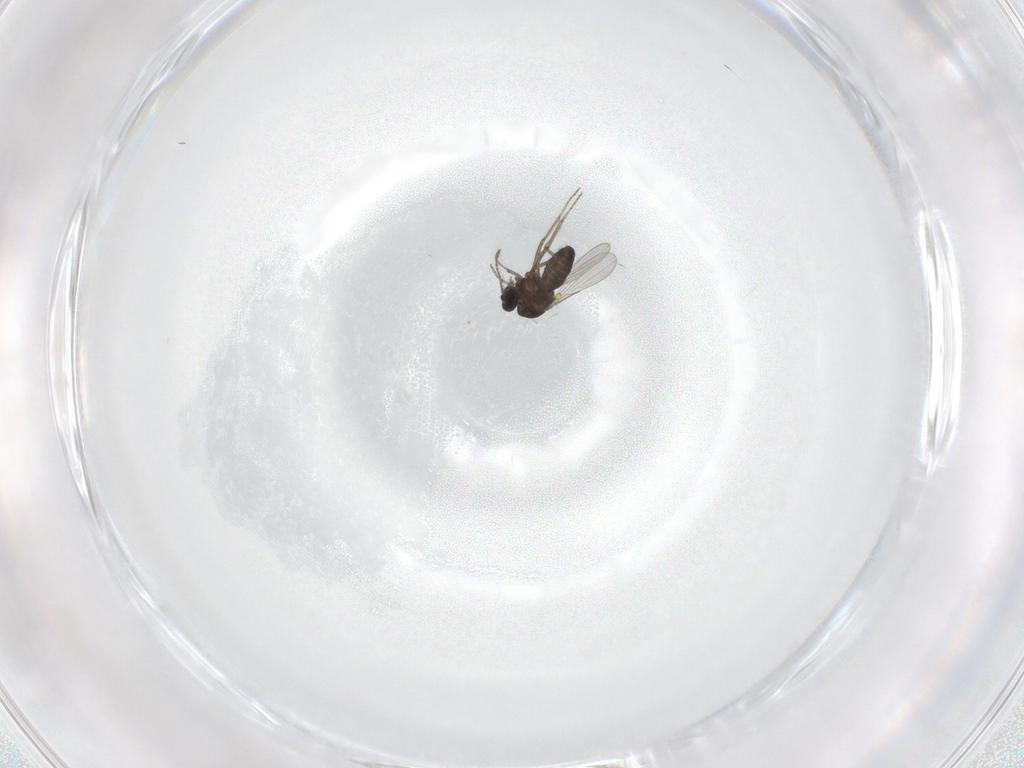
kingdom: Animalia
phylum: Arthropoda
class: Insecta
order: Diptera
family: Ceratopogonidae
